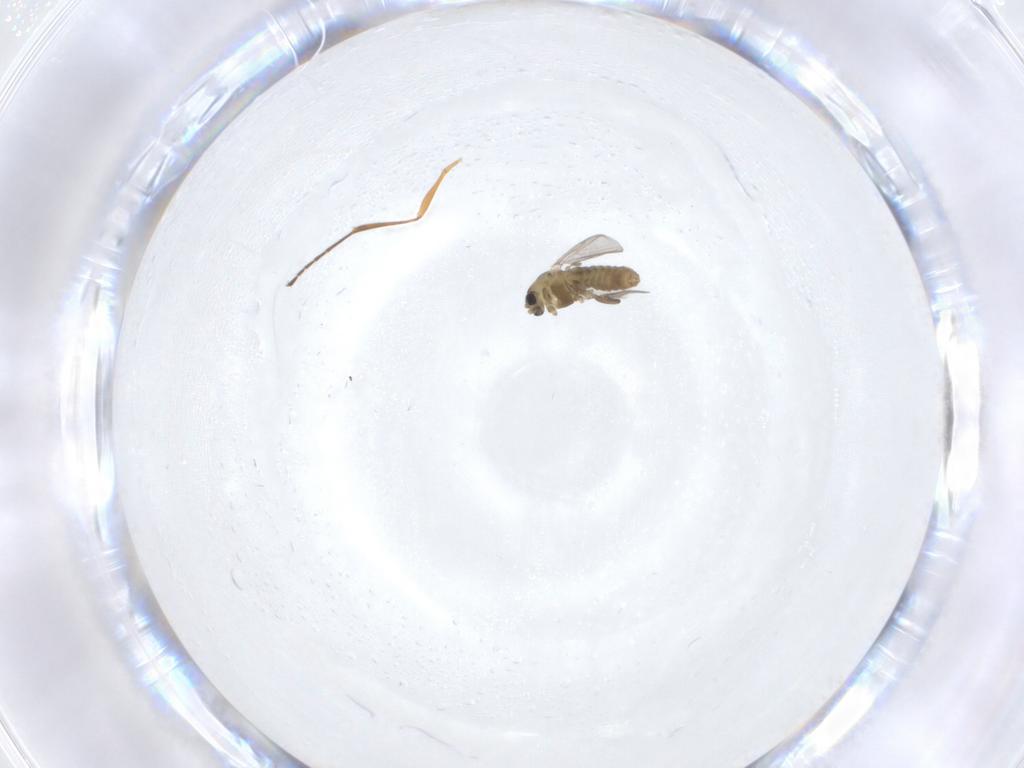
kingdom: Animalia
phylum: Arthropoda
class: Insecta
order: Diptera
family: Chironomidae
